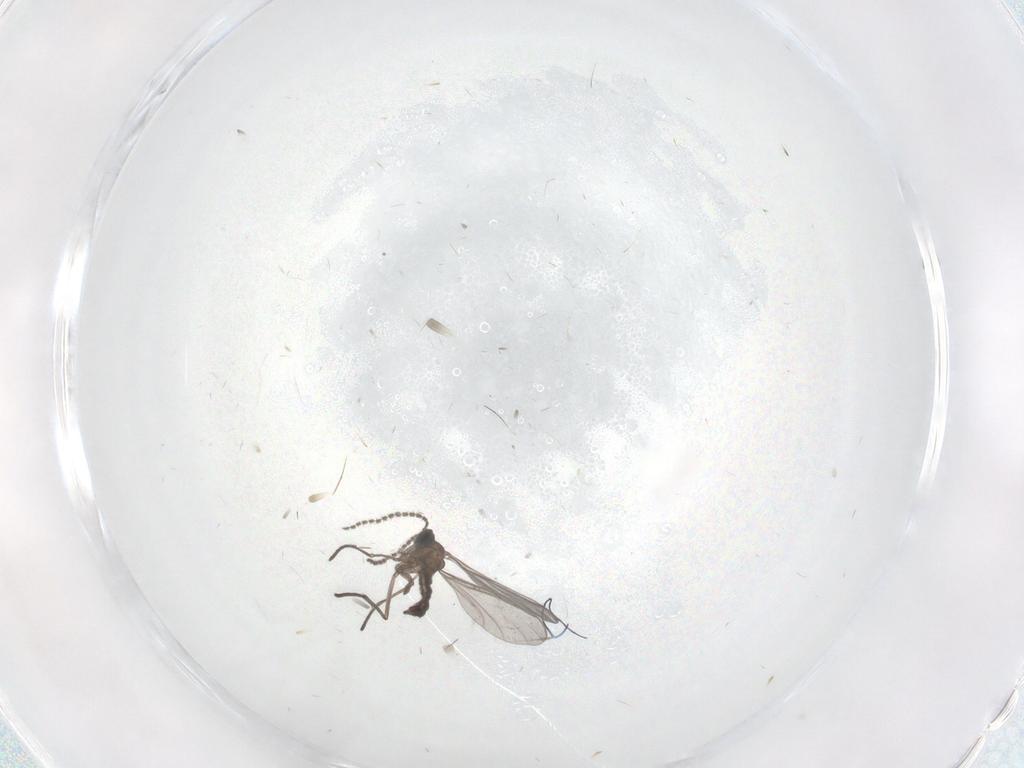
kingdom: Animalia
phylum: Arthropoda
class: Insecta
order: Diptera
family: Sciaridae
